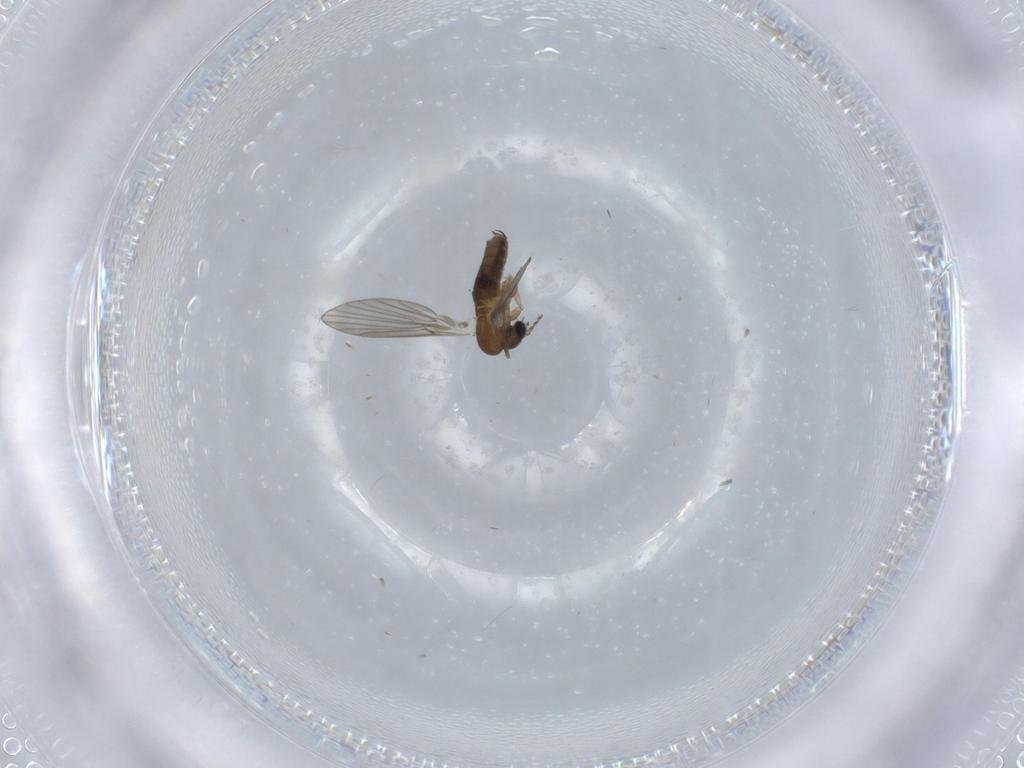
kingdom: Animalia
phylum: Arthropoda
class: Insecta
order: Diptera
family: Psychodidae
